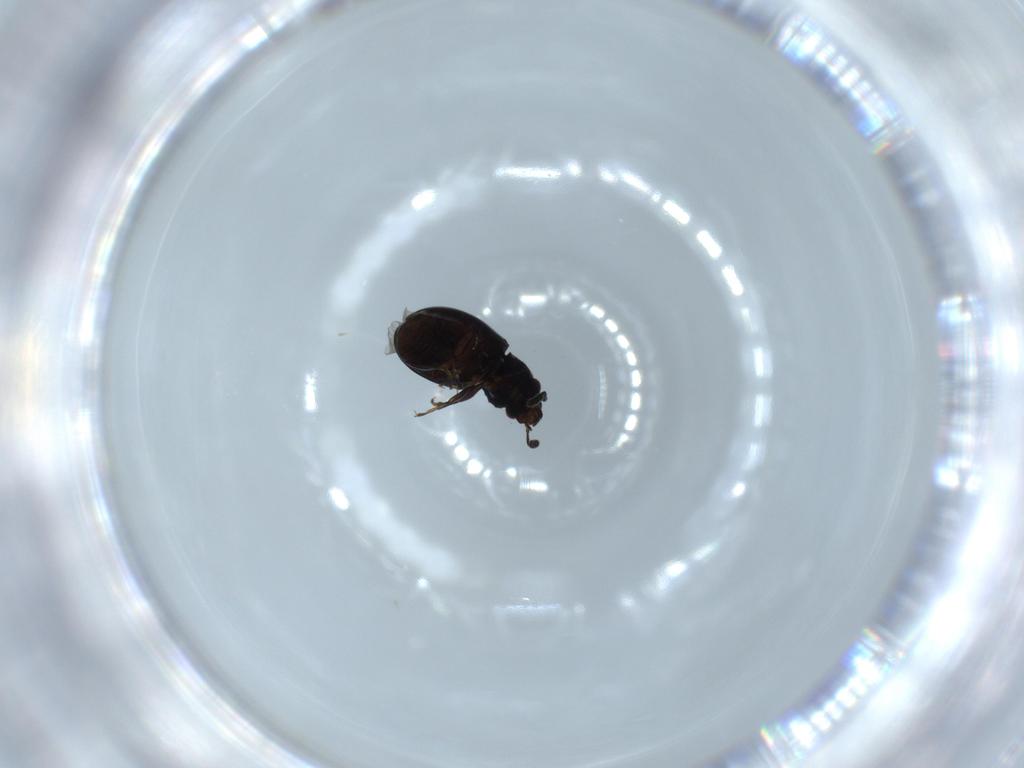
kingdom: Animalia
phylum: Arthropoda
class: Insecta
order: Coleoptera
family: Salpingidae
